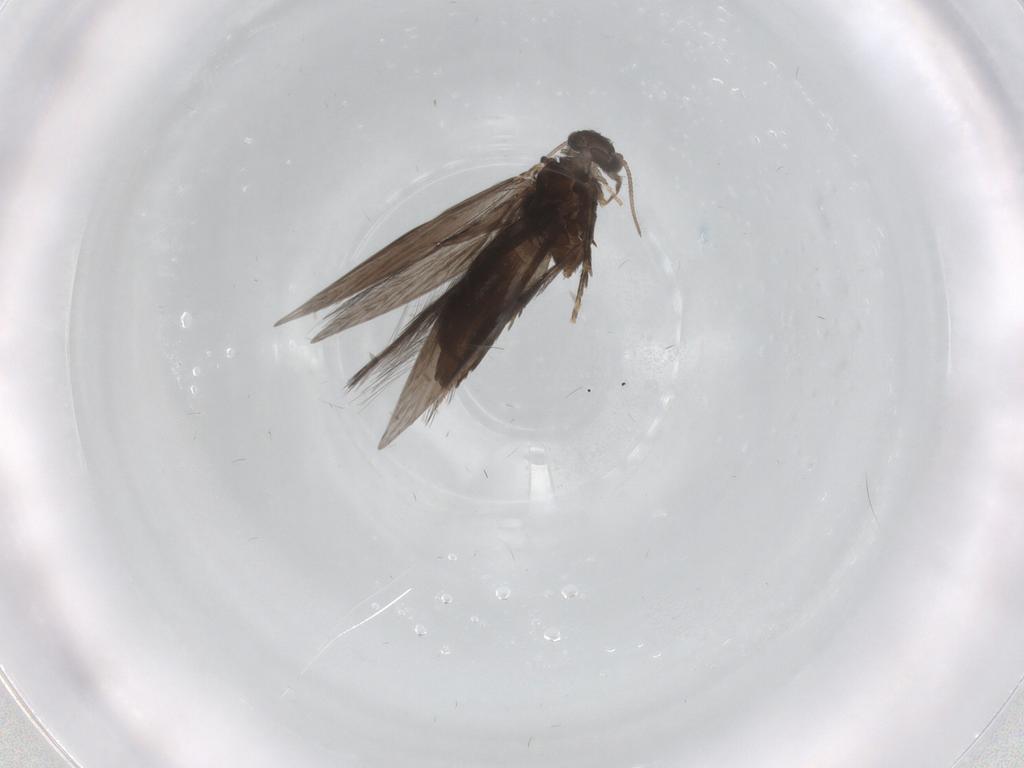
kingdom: Animalia
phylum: Arthropoda
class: Insecta
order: Trichoptera
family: Hydroptilidae
